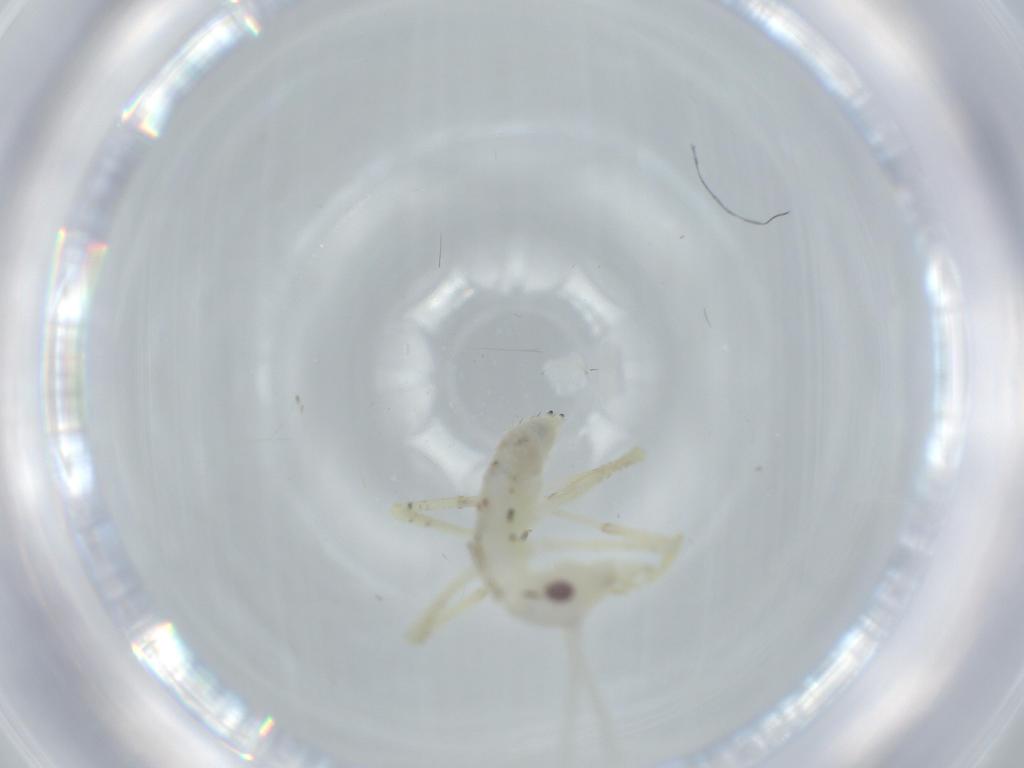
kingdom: Animalia
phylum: Arthropoda
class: Insecta
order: Orthoptera
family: Oecanthidae
